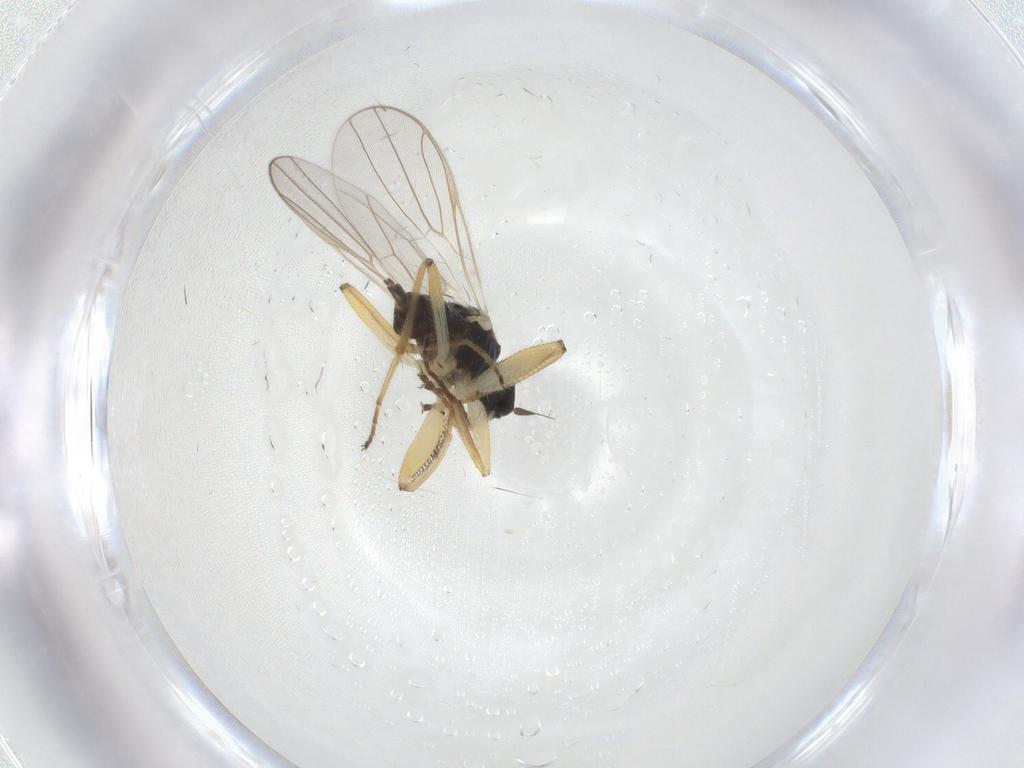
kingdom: Animalia
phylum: Arthropoda
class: Insecta
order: Diptera
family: Hybotidae
